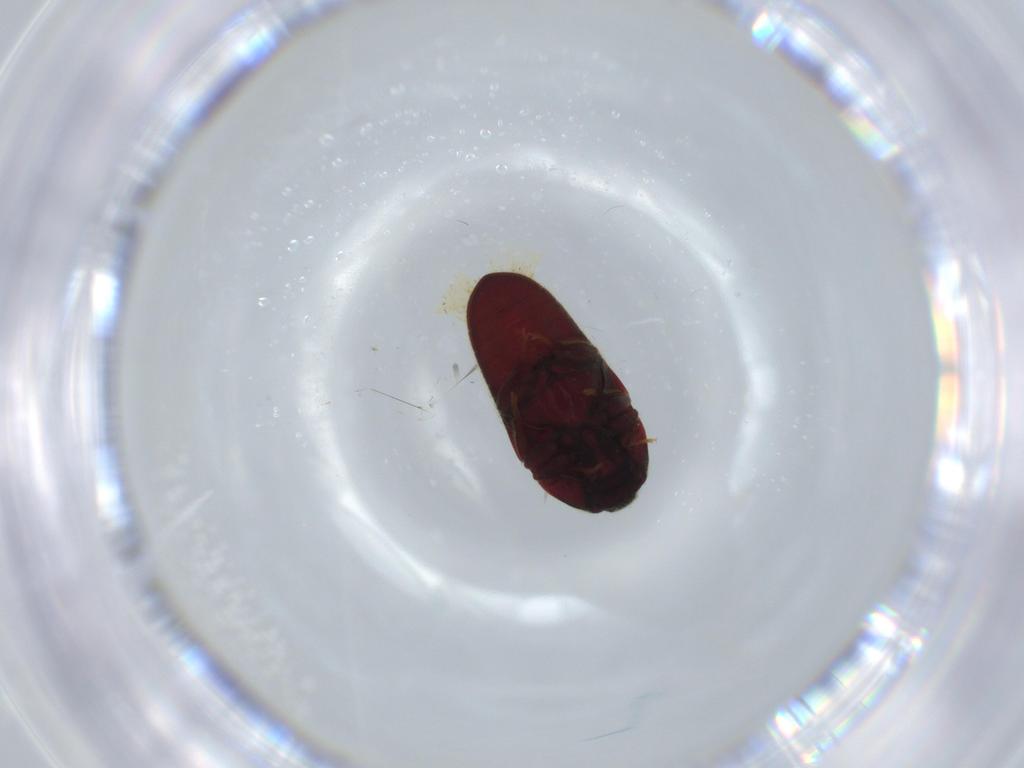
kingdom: Animalia
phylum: Arthropoda
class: Insecta
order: Coleoptera
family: Throscidae
